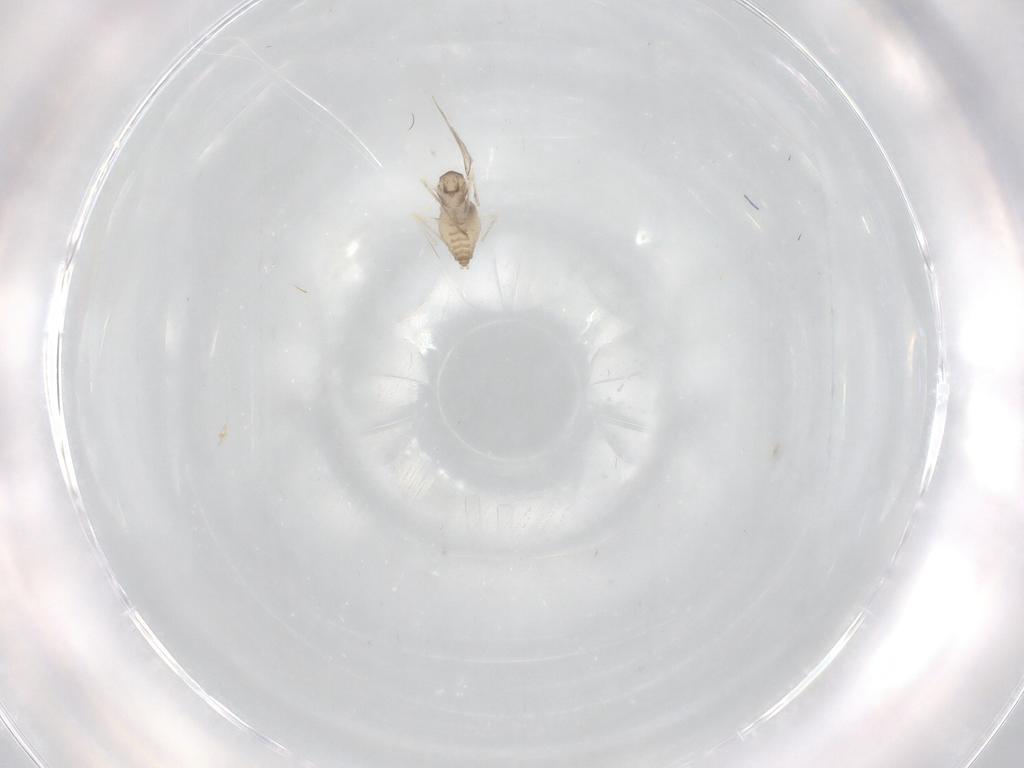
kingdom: Animalia
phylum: Arthropoda
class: Insecta
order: Diptera
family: Cecidomyiidae
